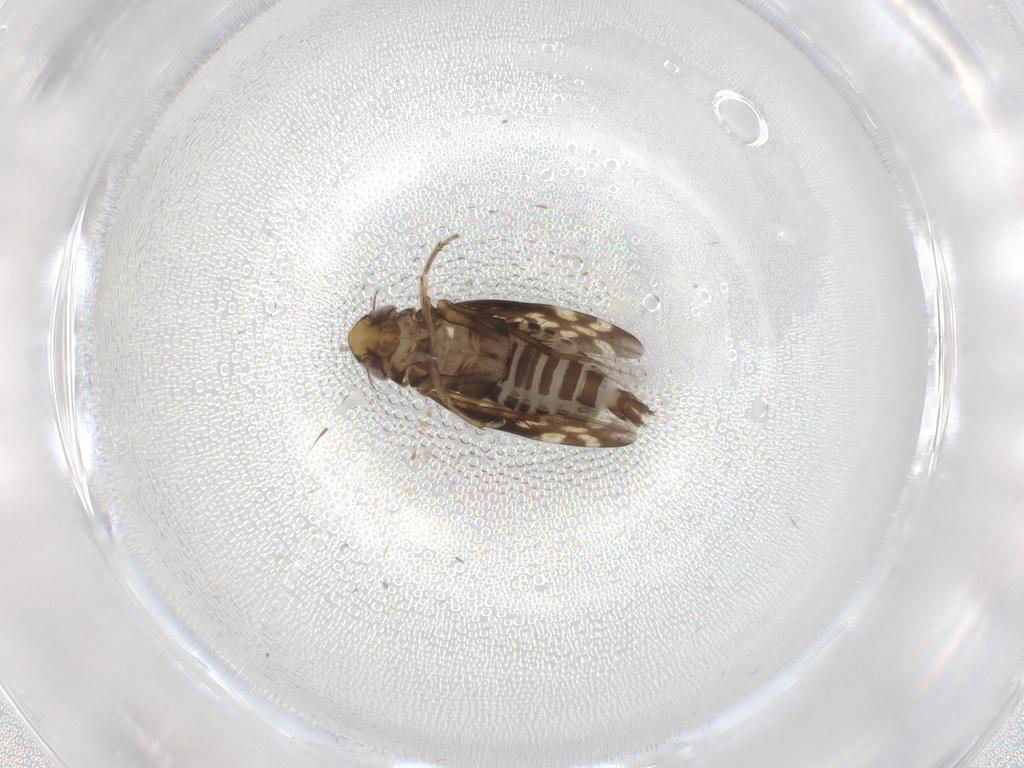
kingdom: Animalia
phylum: Arthropoda
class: Insecta
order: Hemiptera
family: Cicadellidae
